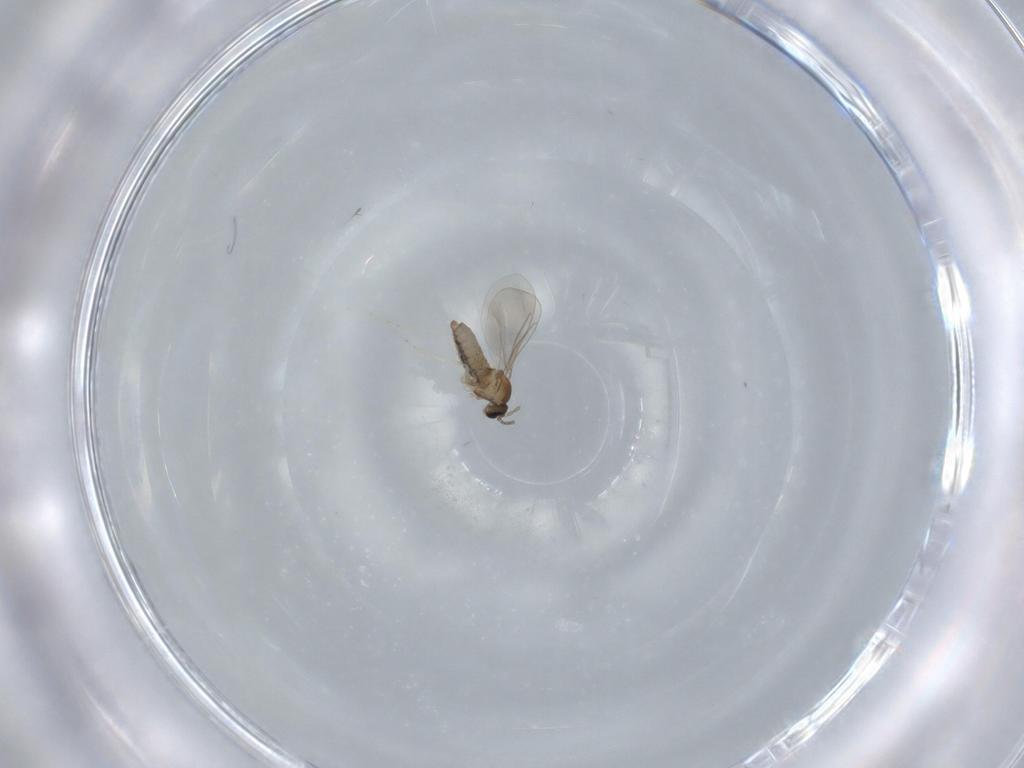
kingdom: Animalia
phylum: Arthropoda
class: Insecta
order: Diptera
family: Cecidomyiidae
